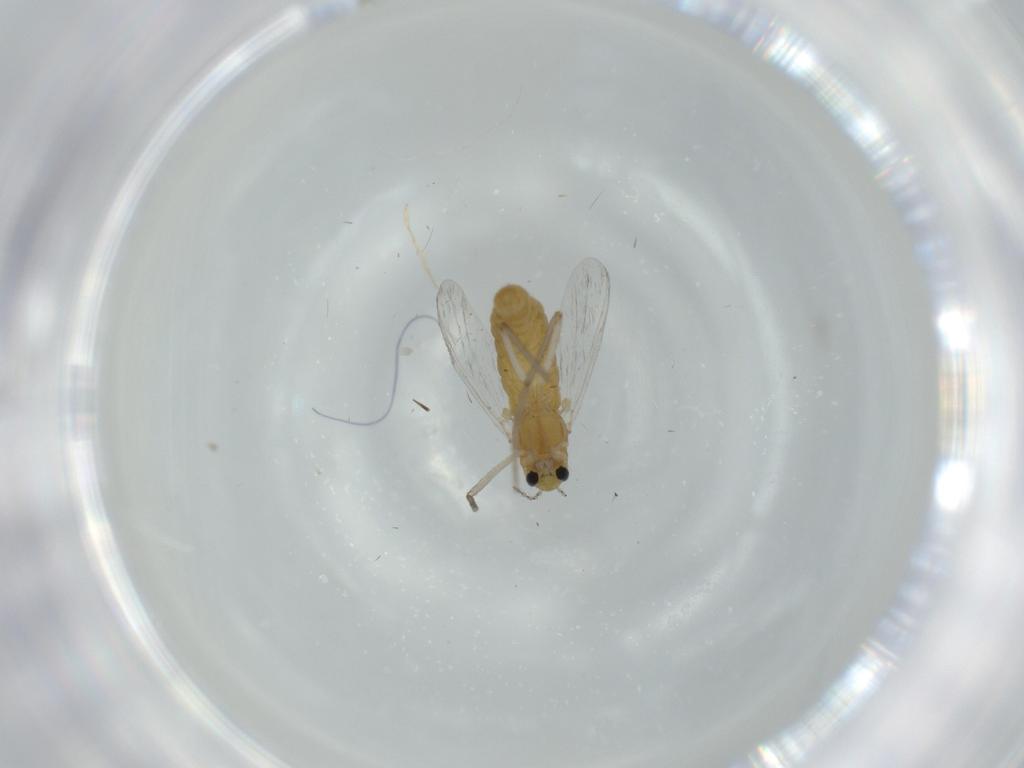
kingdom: Animalia
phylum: Arthropoda
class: Insecta
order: Diptera
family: Chironomidae
